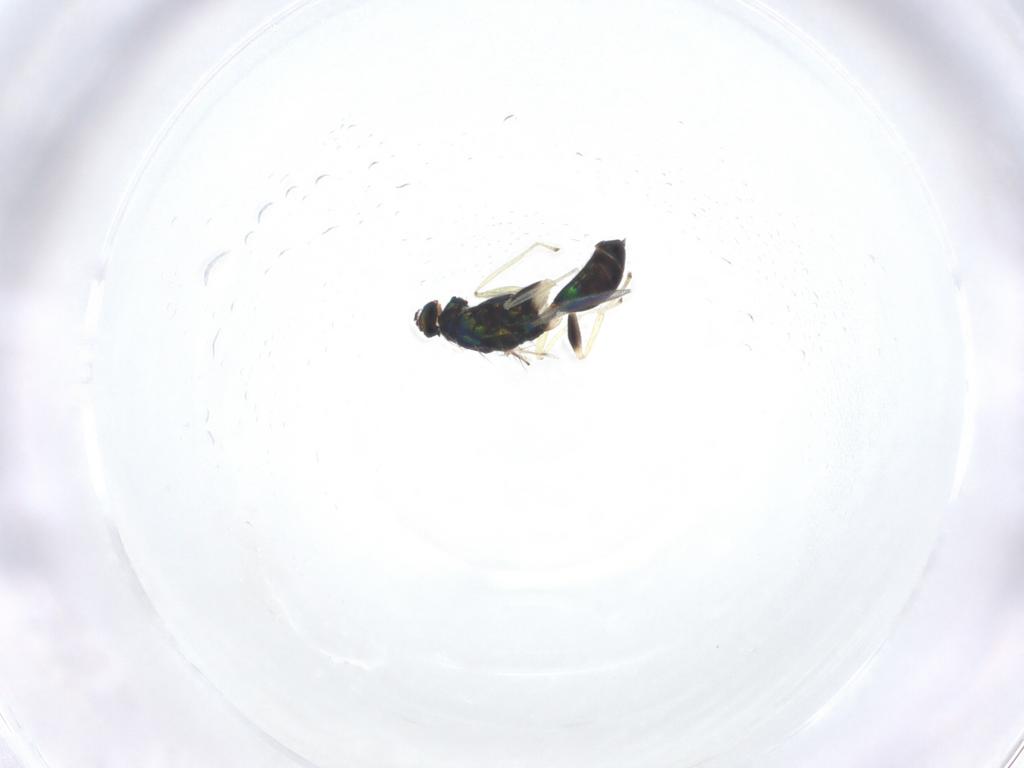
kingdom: Animalia
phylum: Arthropoda
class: Insecta
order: Hymenoptera
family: Eulophidae
